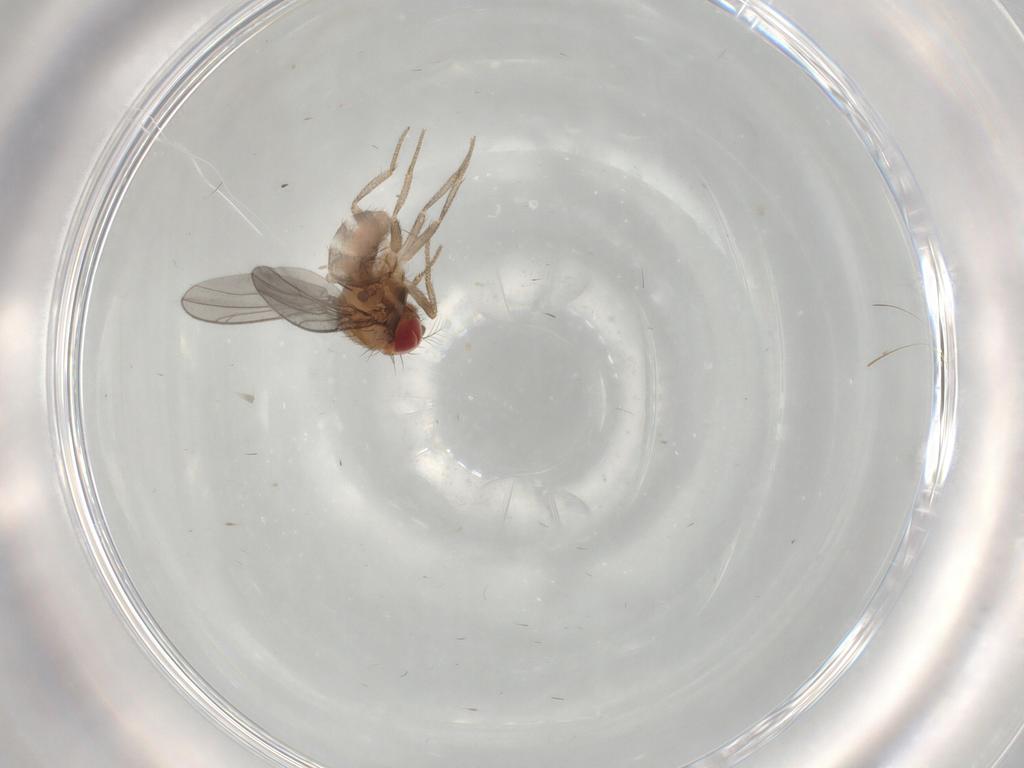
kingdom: Animalia
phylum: Arthropoda
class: Insecta
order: Diptera
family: Drosophilidae
